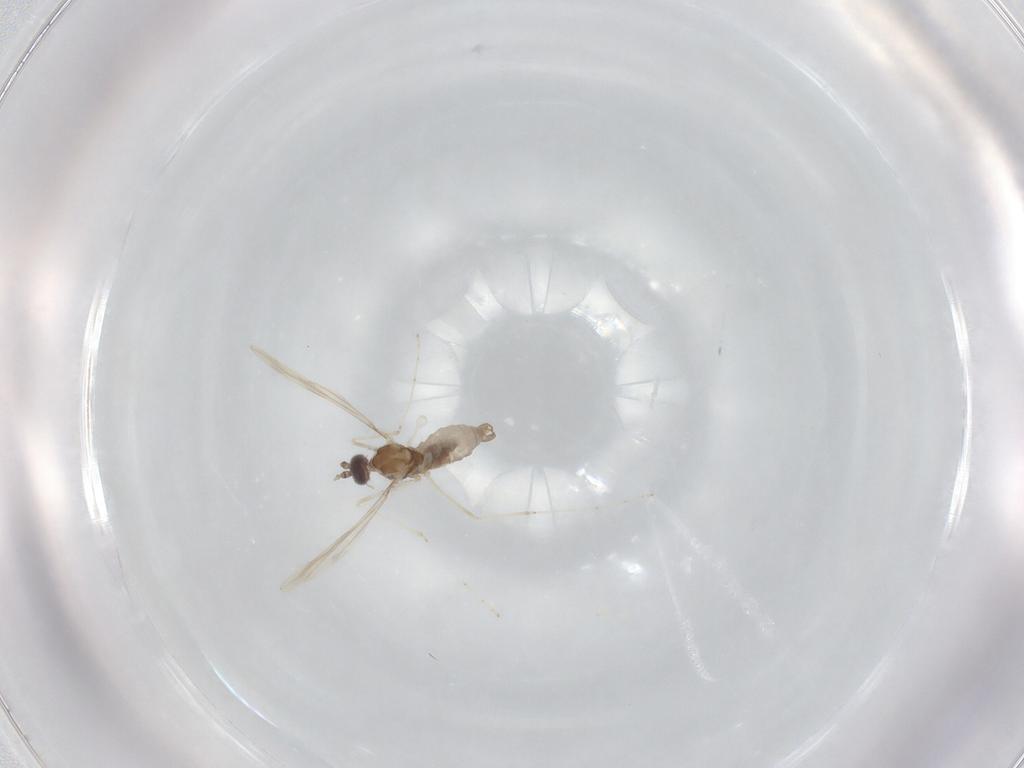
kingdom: Animalia
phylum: Arthropoda
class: Insecta
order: Diptera
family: Cecidomyiidae
